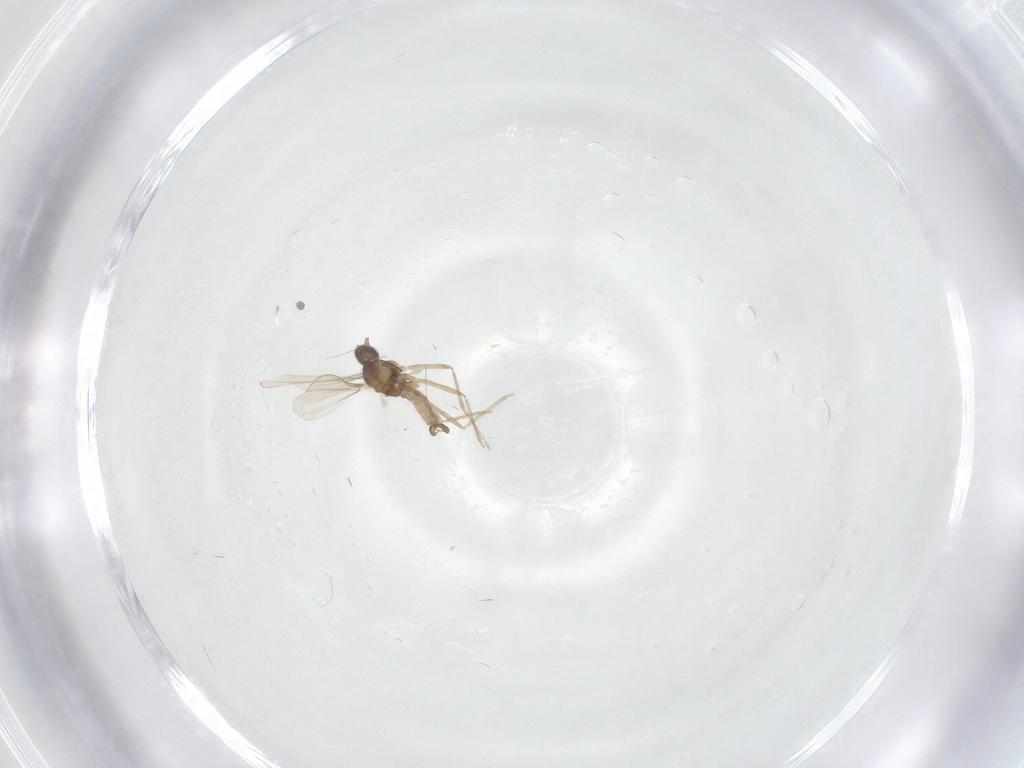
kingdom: Animalia
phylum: Arthropoda
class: Insecta
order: Diptera
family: Cecidomyiidae
